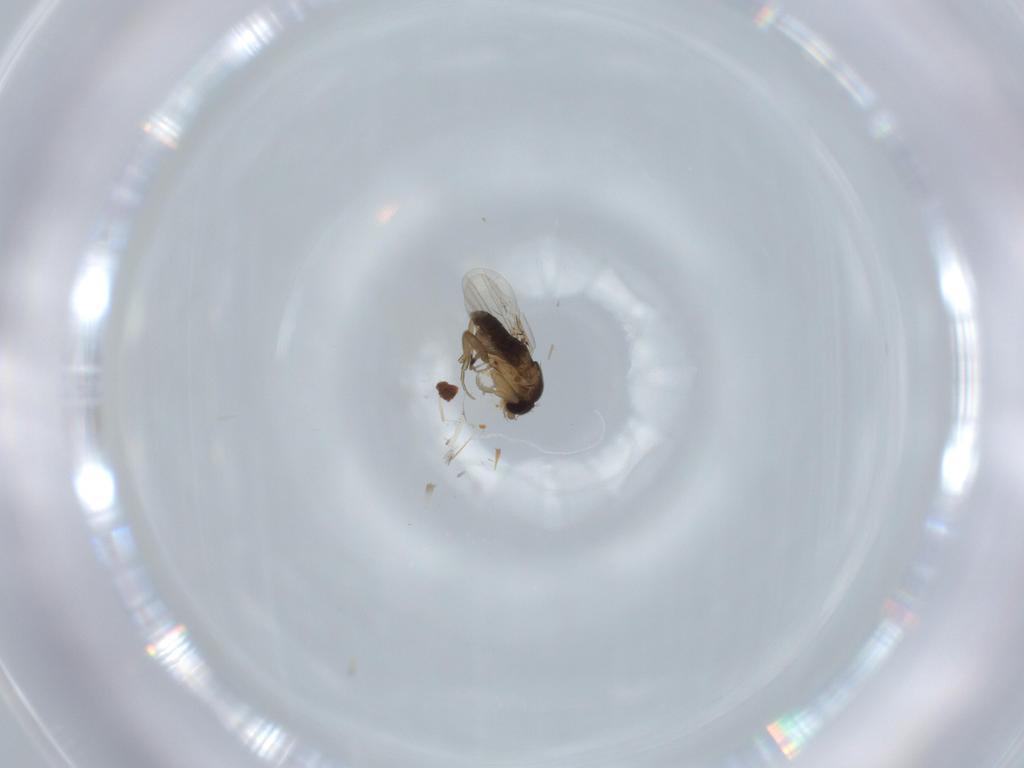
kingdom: Animalia
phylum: Arthropoda
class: Insecta
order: Diptera
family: Phoridae
